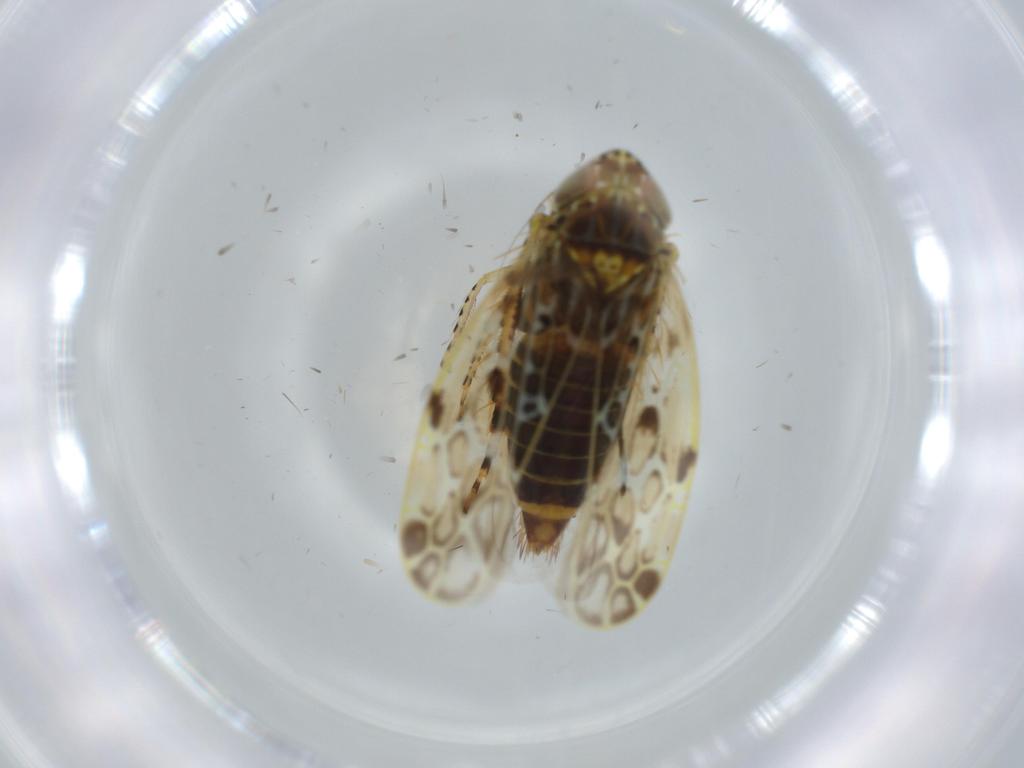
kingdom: Animalia
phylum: Arthropoda
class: Insecta
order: Hemiptera
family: Cicadellidae
